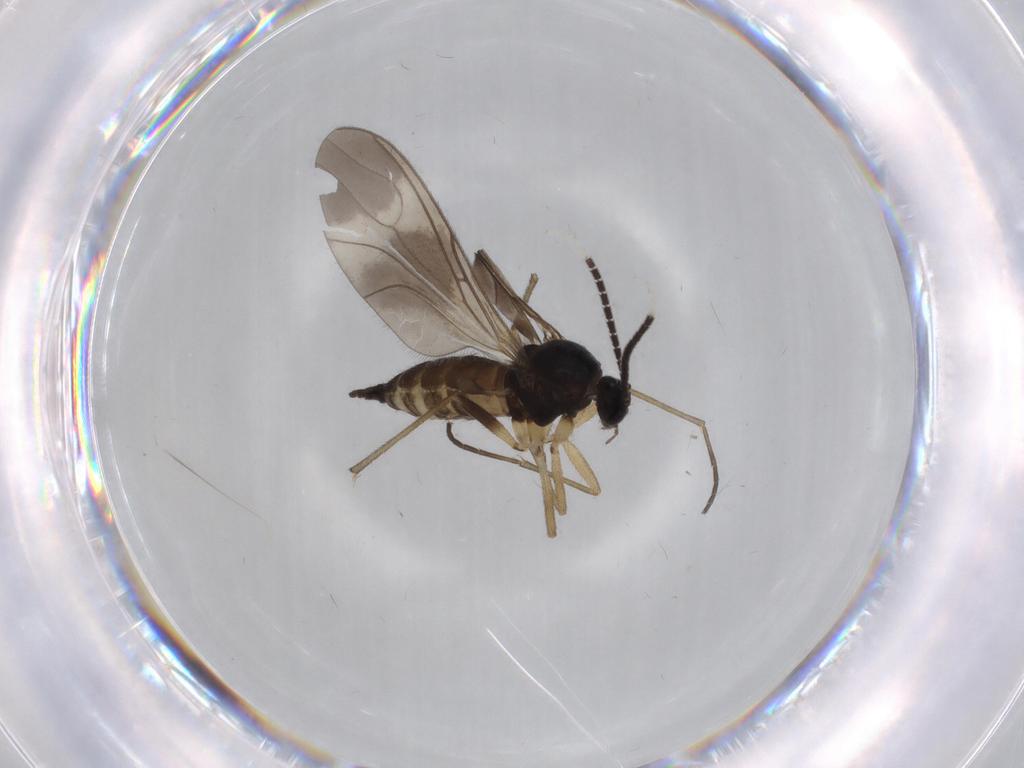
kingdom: Animalia
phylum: Arthropoda
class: Insecta
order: Diptera
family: Sciaridae
